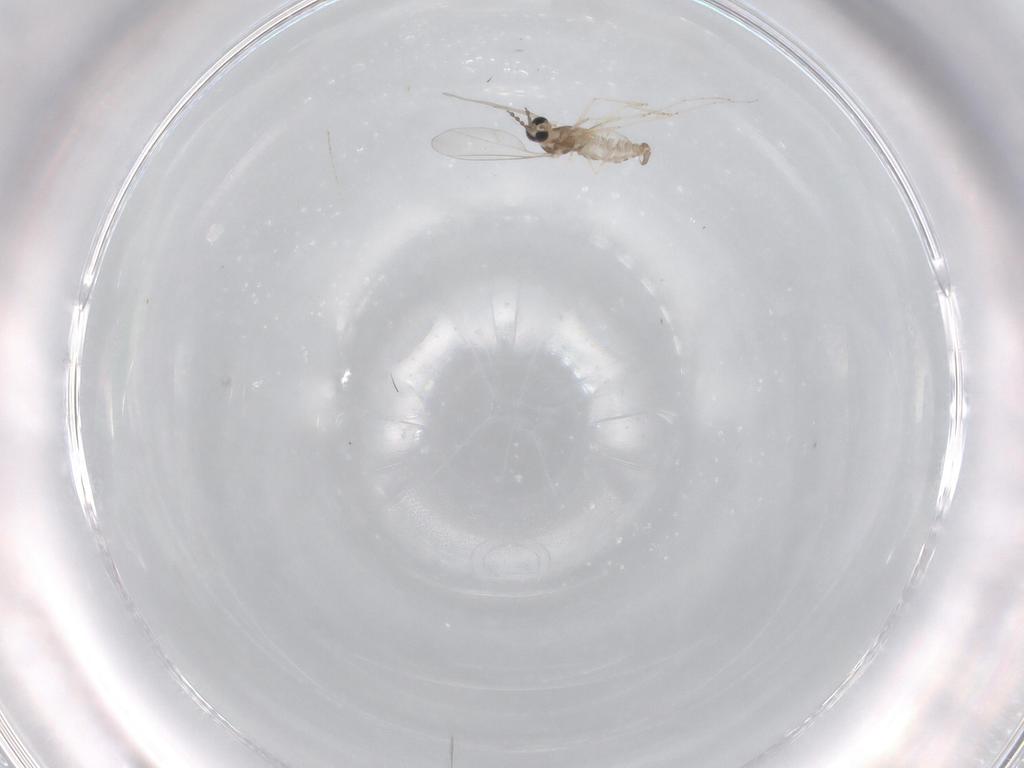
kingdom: Animalia
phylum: Arthropoda
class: Insecta
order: Diptera
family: Cecidomyiidae
